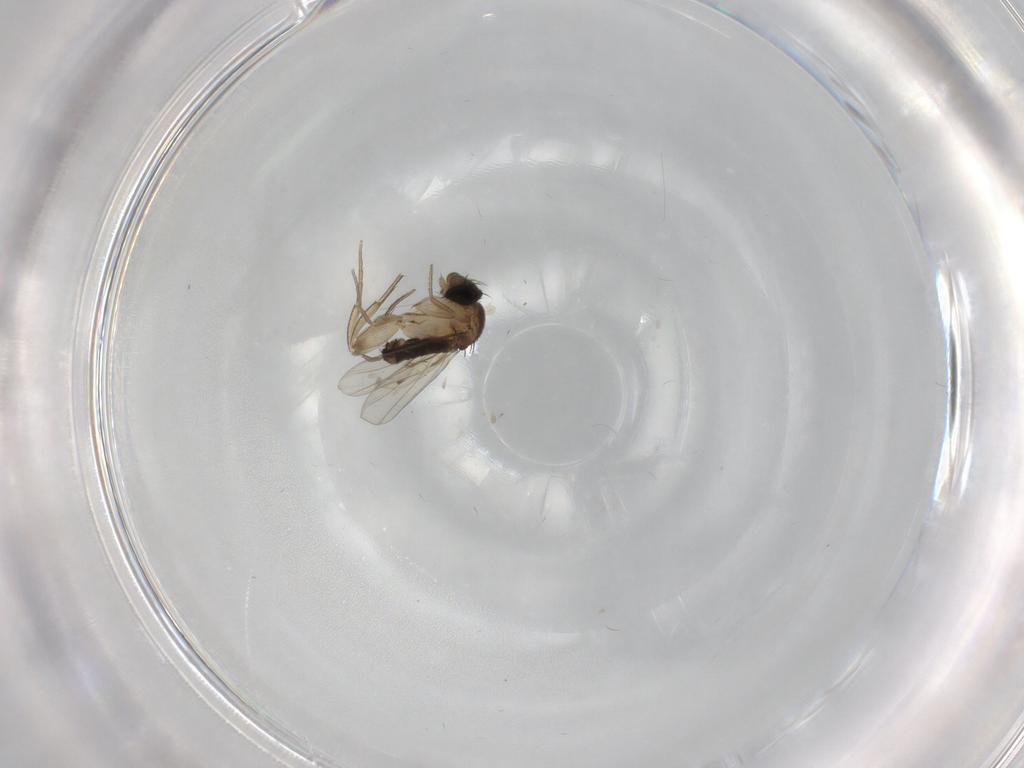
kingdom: Animalia
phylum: Arthropoda
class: Insecta
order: Diptera
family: Phoridae
